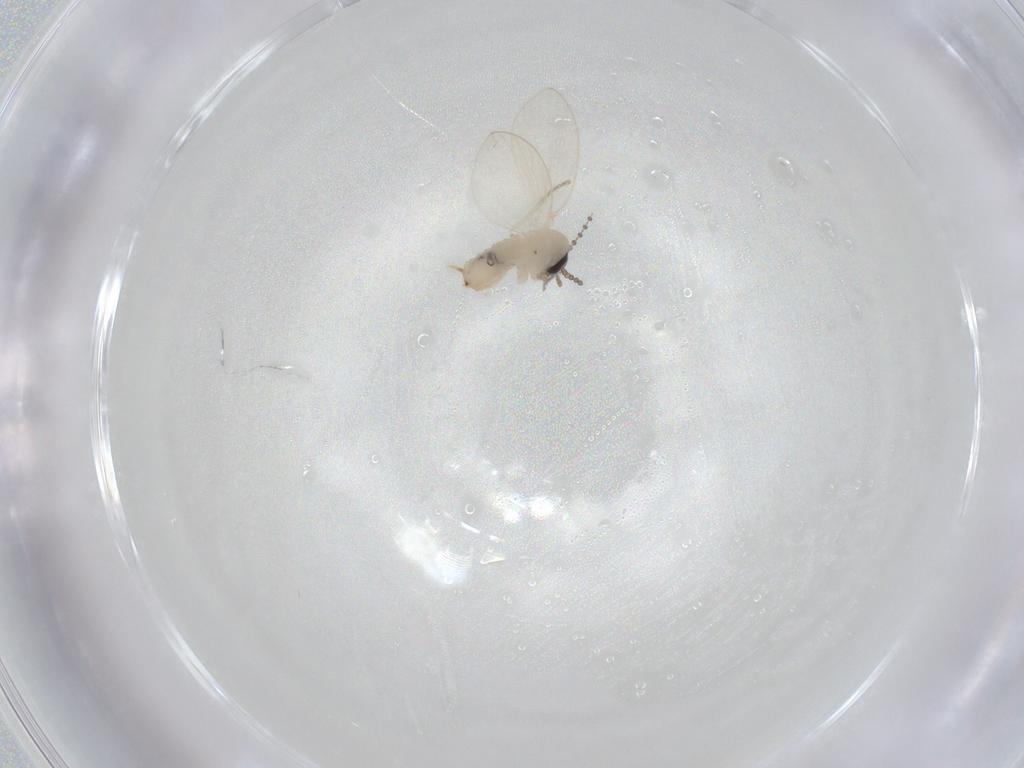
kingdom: Animalia
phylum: Arthropoda
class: Insecta
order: Diptera
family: Psychodidae
